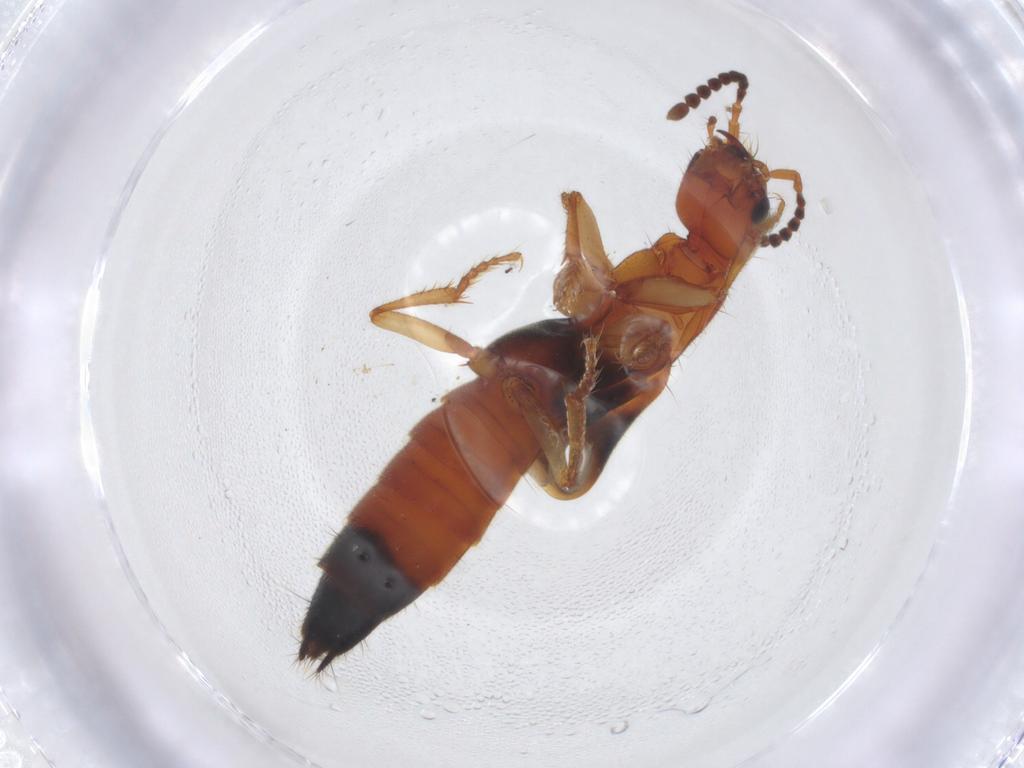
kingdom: Animalia
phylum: Arthropoda
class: Insecta
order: Coleoptera
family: Staphylinidae
